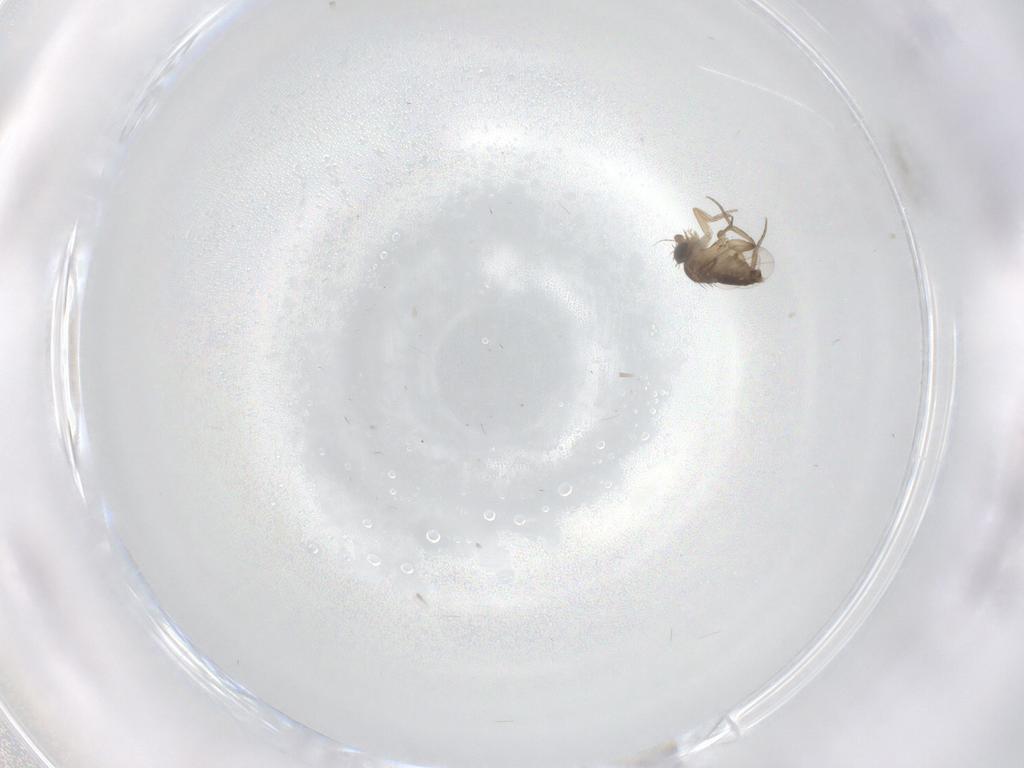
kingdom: Animalia
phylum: Arthropoda
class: Insecta
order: Diptera
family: Phoridae
